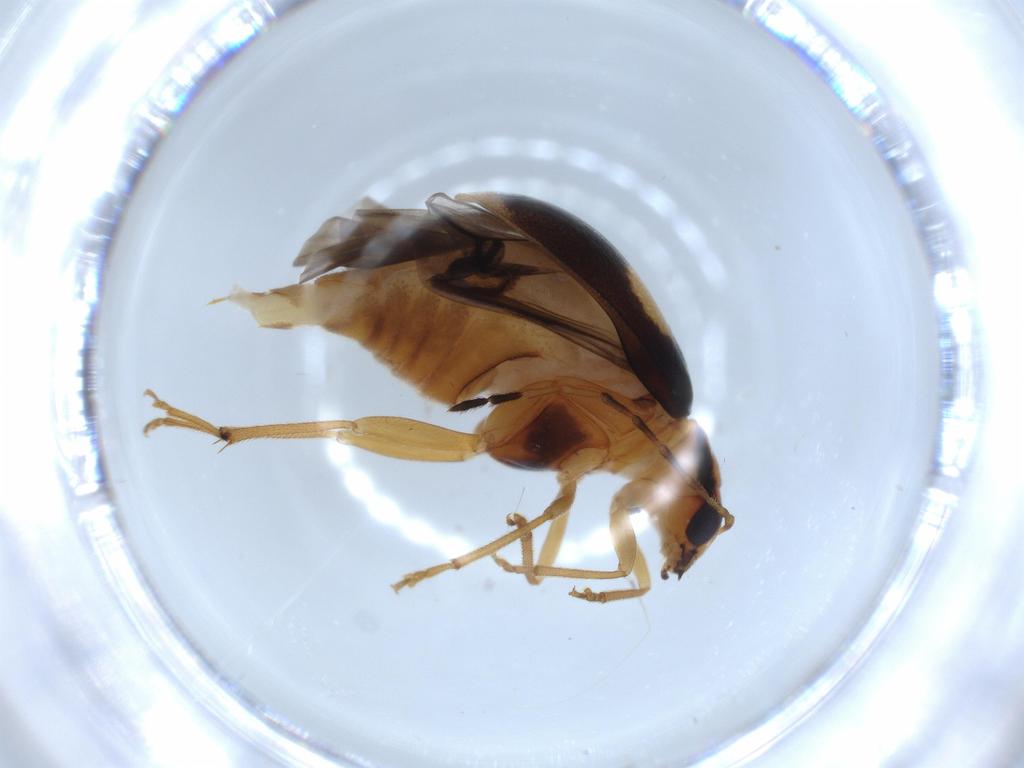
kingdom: Animalia
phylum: Arthropoda
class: Insecta
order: Coleoptera
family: Chrysomelidae
